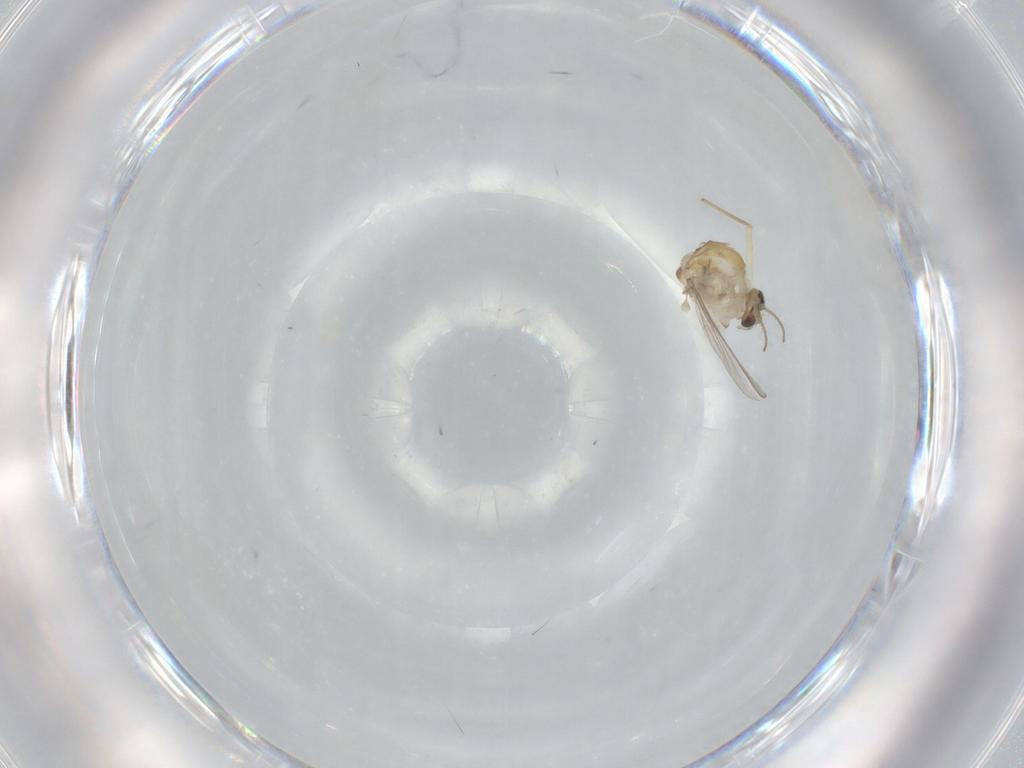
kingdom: Animalia
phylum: Arthropoda
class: Insecta
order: Diptera
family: Chironomidae
